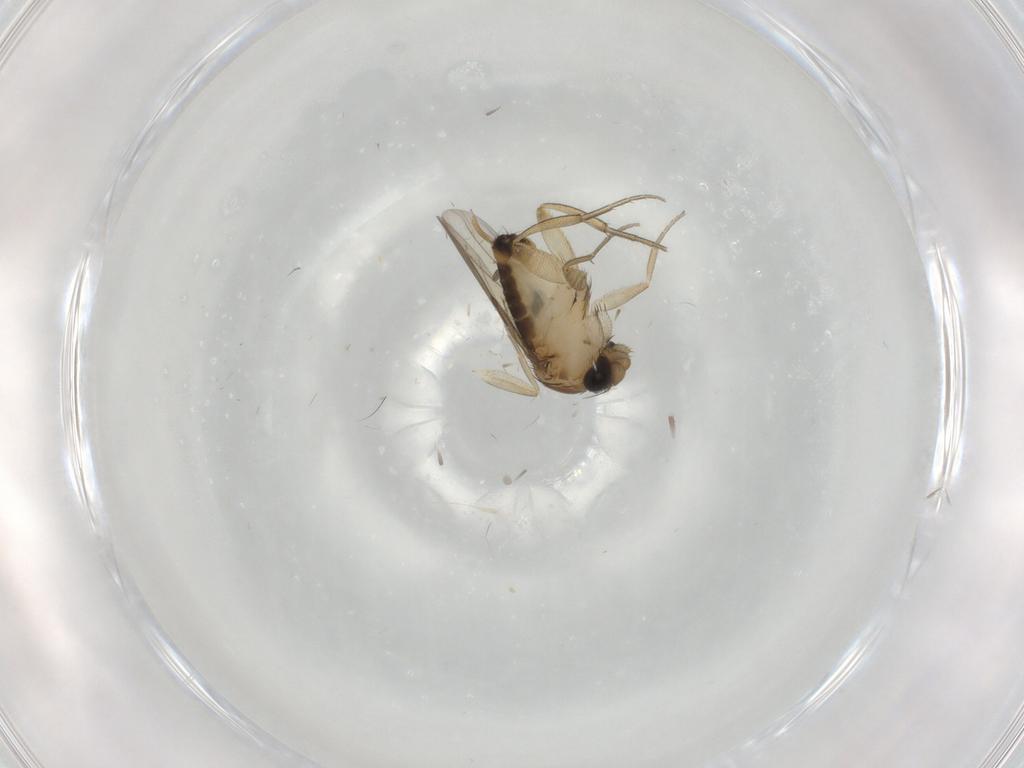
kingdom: Animalia
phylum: Arthropoda
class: Insecta
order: Diptera
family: Phoridae
